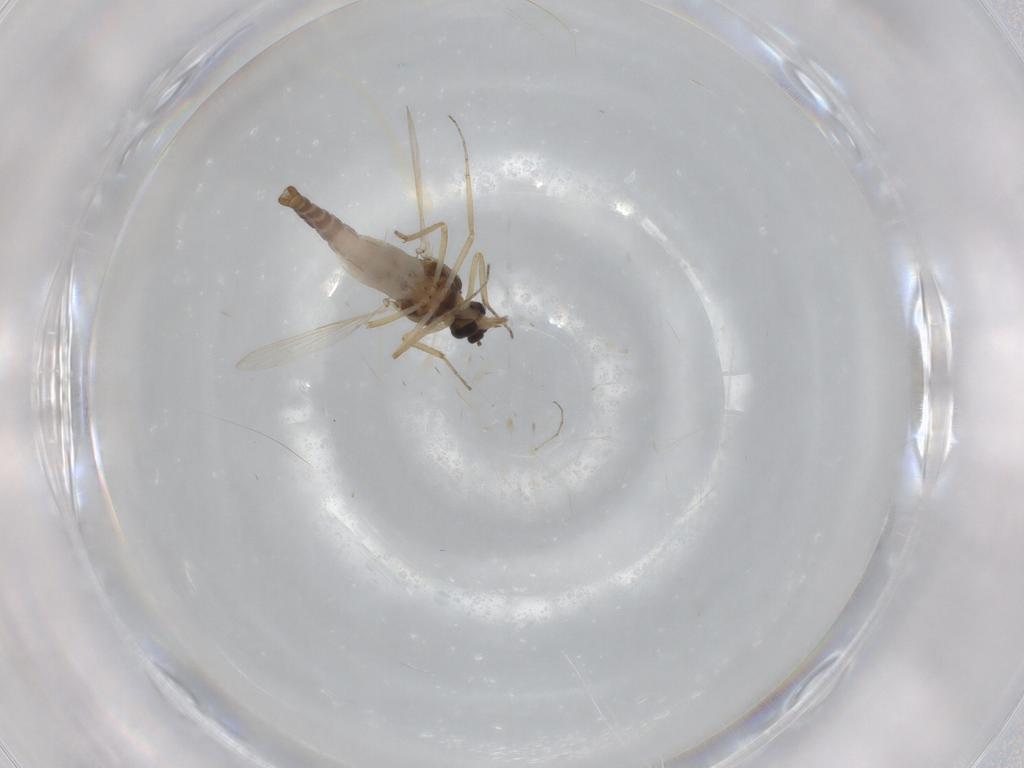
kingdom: Animalia
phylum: Arthropoda
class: Insecta
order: Diptera
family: Ceratopogonidae
